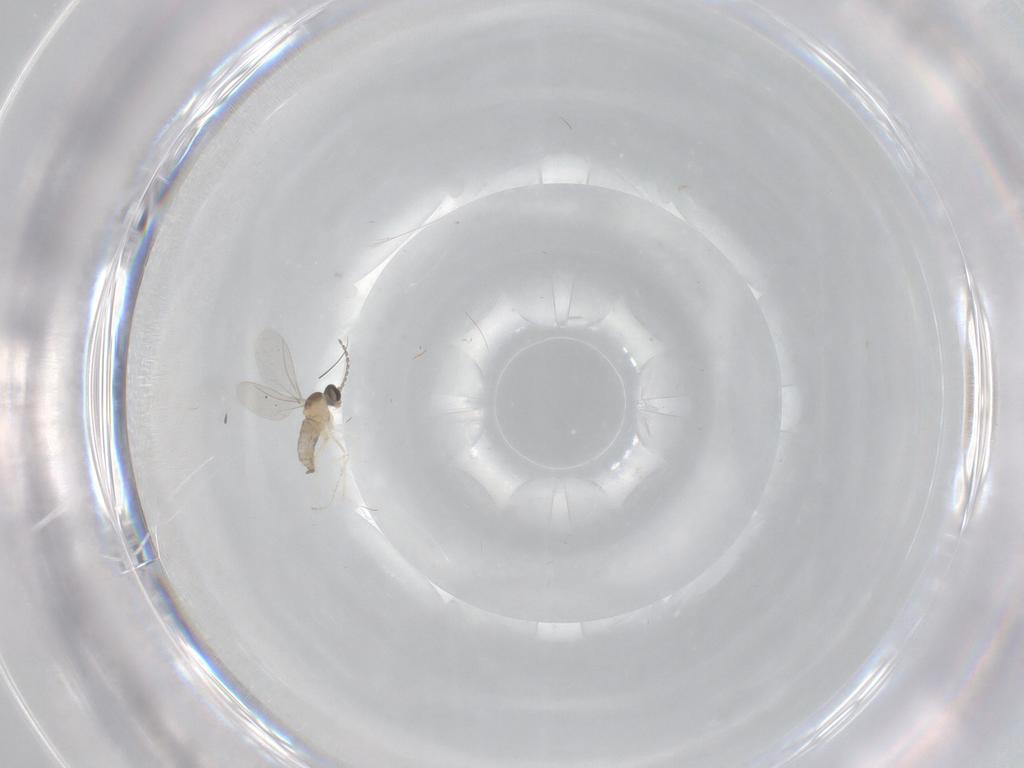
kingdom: Animalia
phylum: Arthropoda
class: Insecta
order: Diptera
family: Cecidomyiidae
